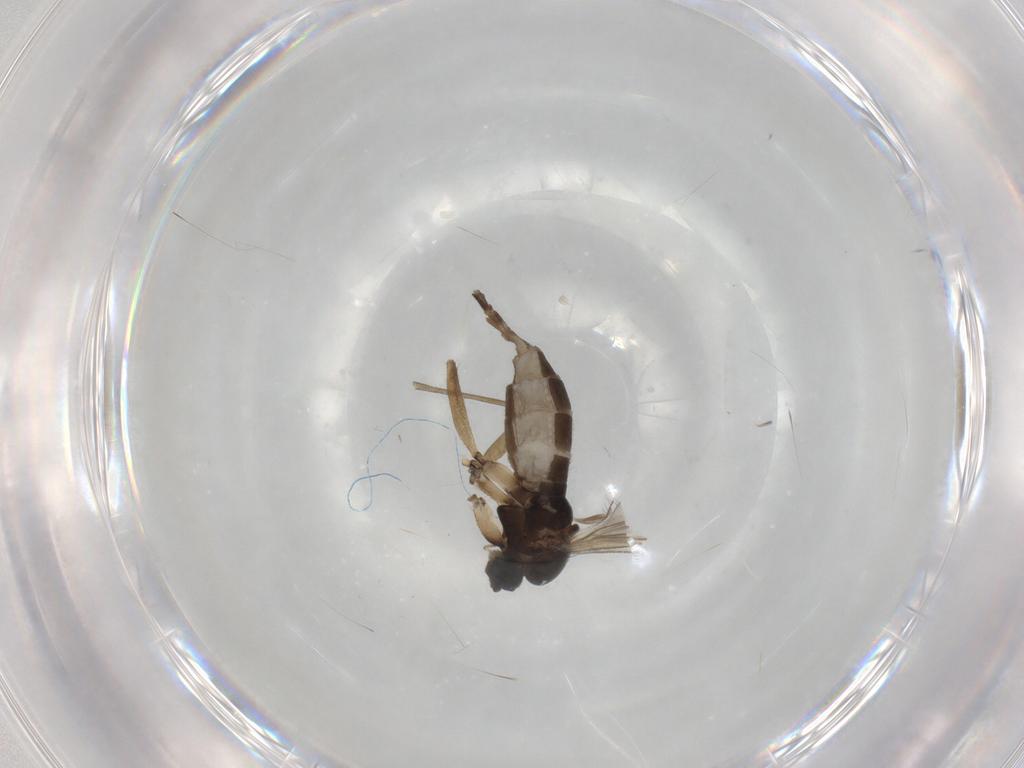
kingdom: Animalia
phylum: Arthropoda
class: Insecta
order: Diptera
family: Sciaridae
